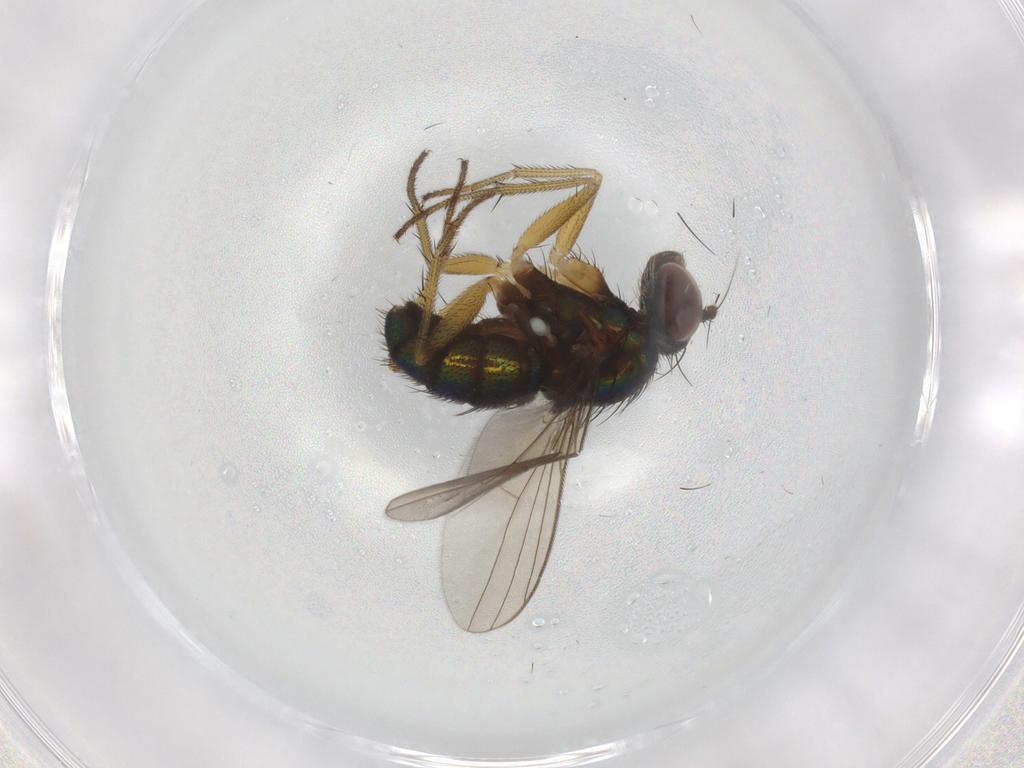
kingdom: Animalia
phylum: Arthropoda
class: Insecta
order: Diptera
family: Dolichopodidae
